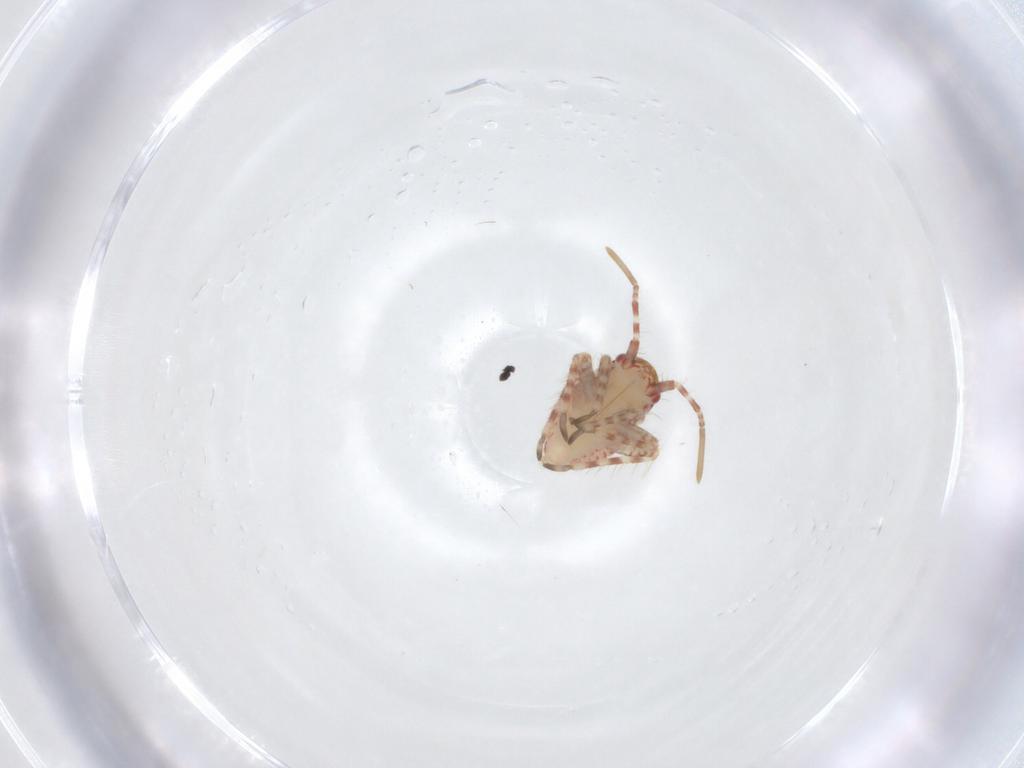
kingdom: Animalia
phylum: Arthropoda
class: Insecta
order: Hemiptera
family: Miridae
